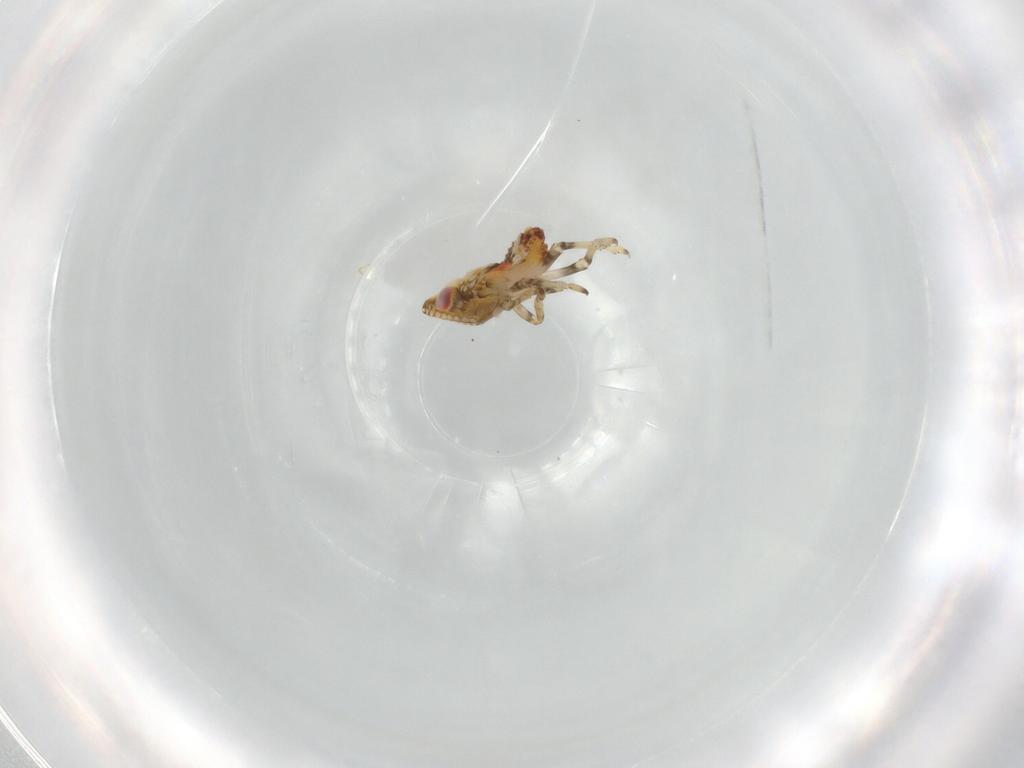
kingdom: Animalia
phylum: Arthropoda
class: Insecta
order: Hemiptera
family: Tropiduchidae
